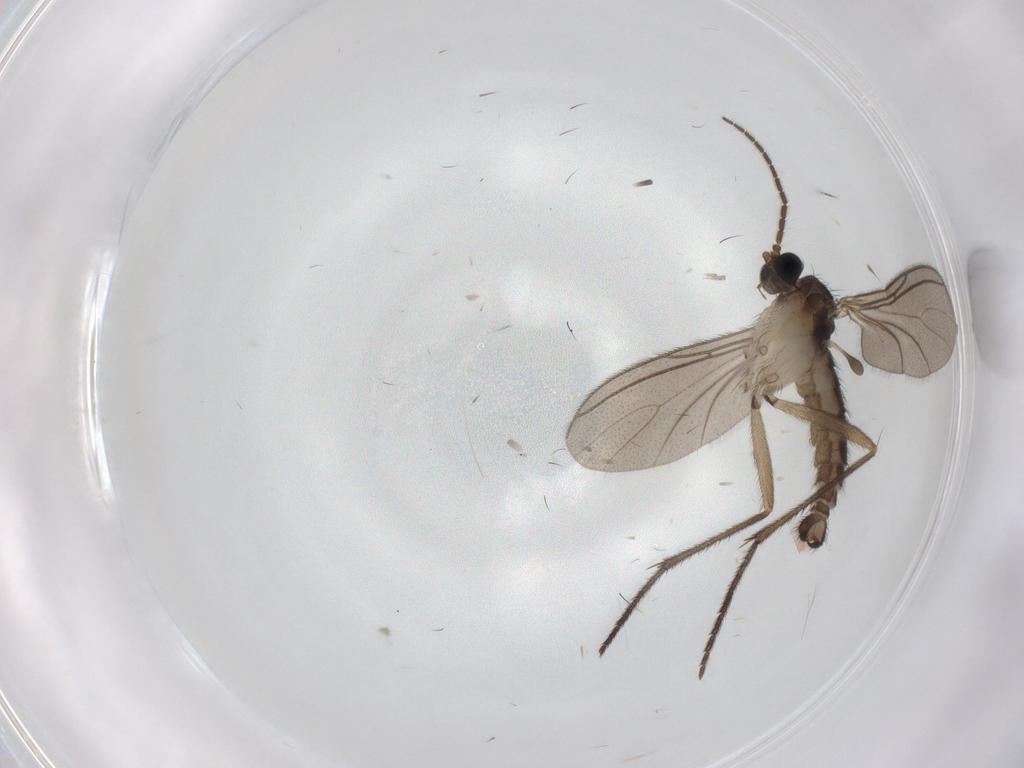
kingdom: Animalia
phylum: Arthropoda
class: Insecta
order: Diptera
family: Sciaridae
